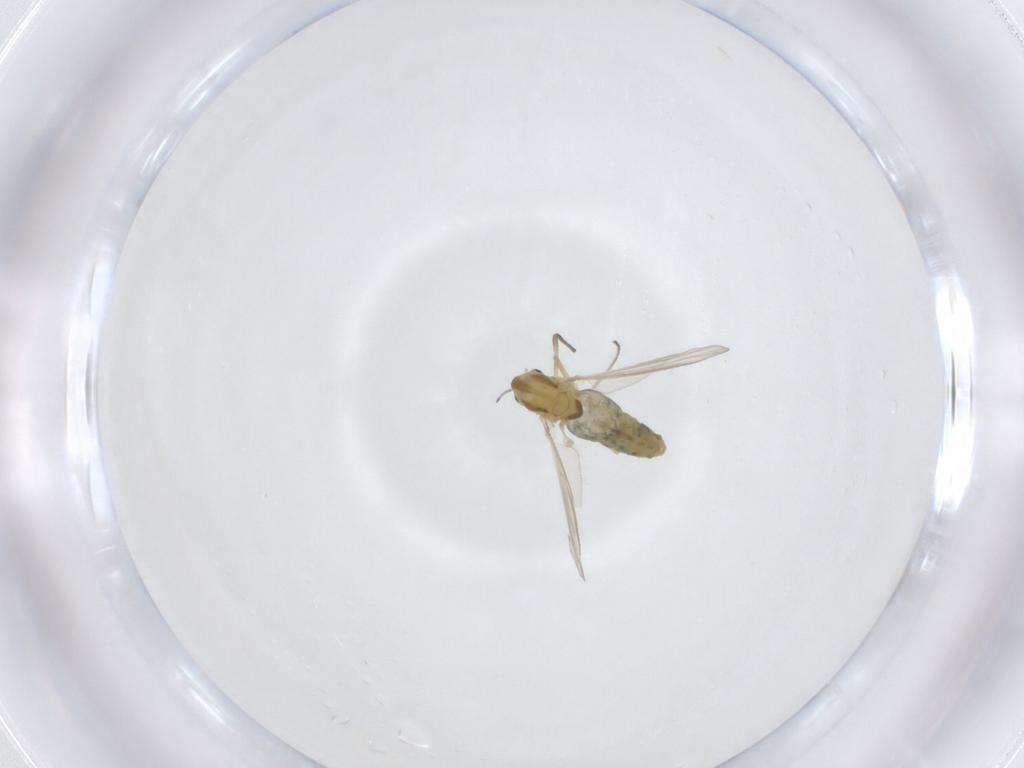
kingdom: Animalia
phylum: Arthropoda
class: Insecta
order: Diptera
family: Chironomidae
